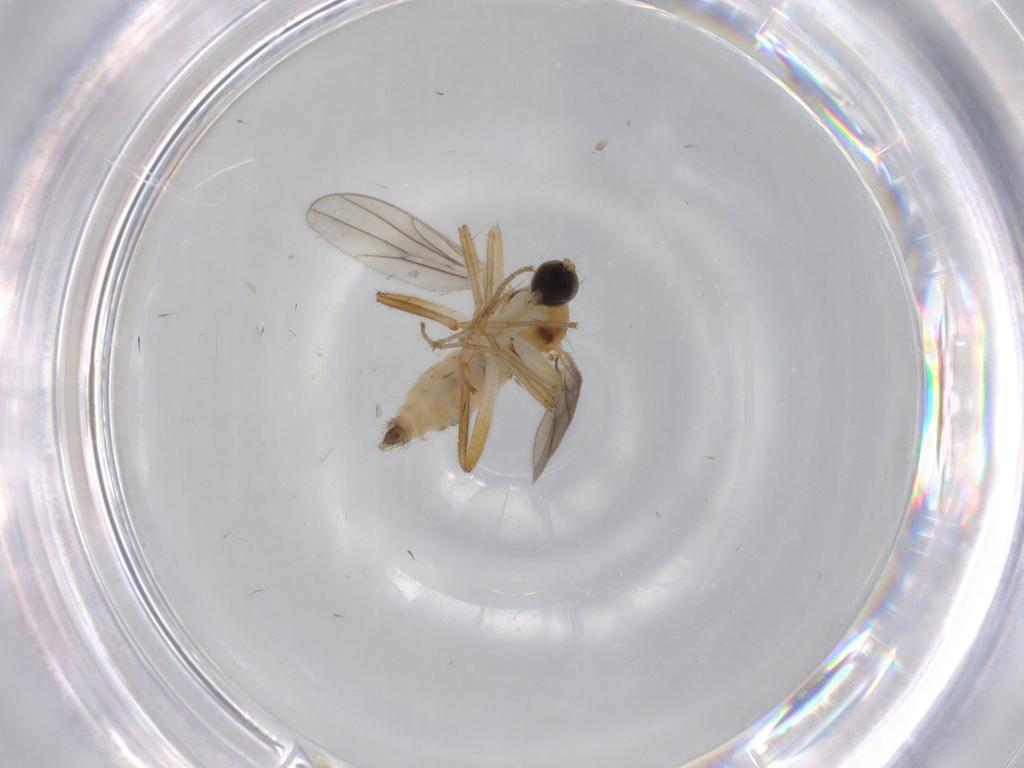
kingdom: Animalia
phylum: Arthropoda
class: Insecta
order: Diptera
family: Hybotidae
